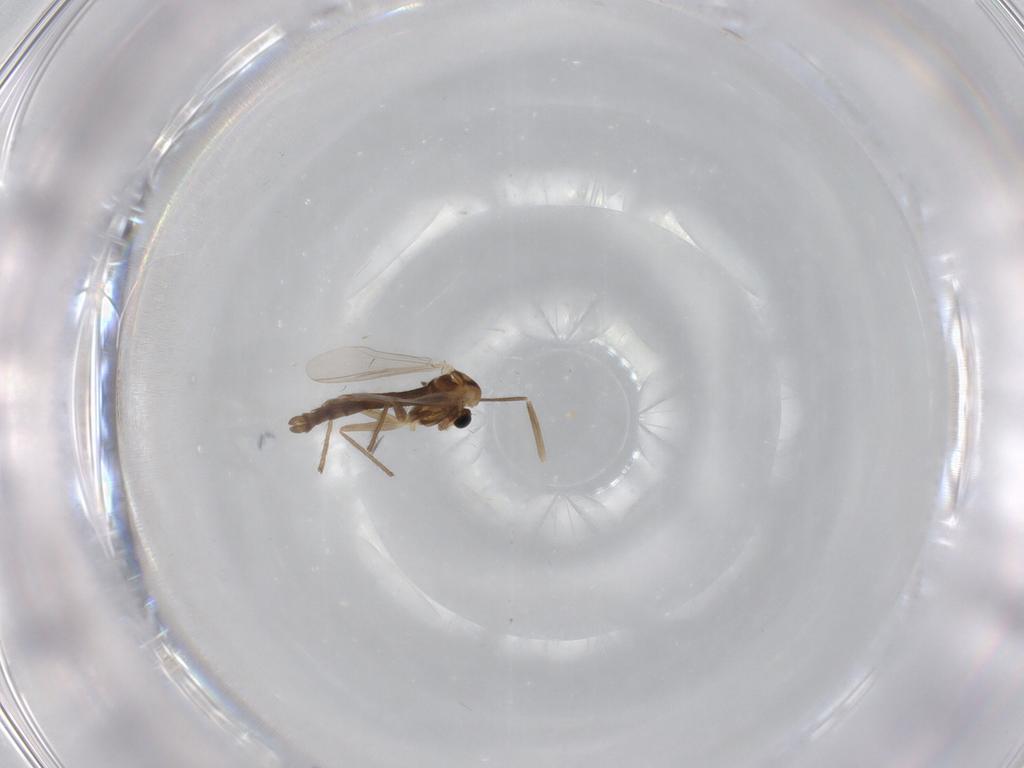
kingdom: Animalia
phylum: Arthropoda
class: Insecta
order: Diptera
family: Chironomidae
